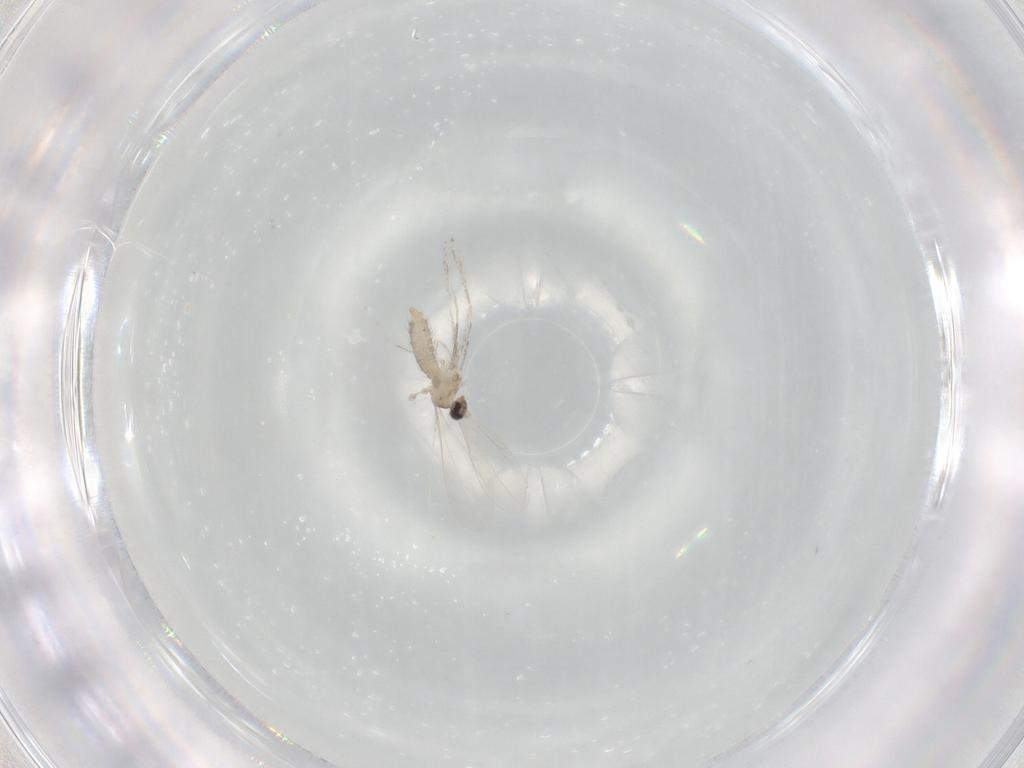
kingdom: Animalia
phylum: Arthropoda
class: Insecta
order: Diptera
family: Cecidomyiidae
